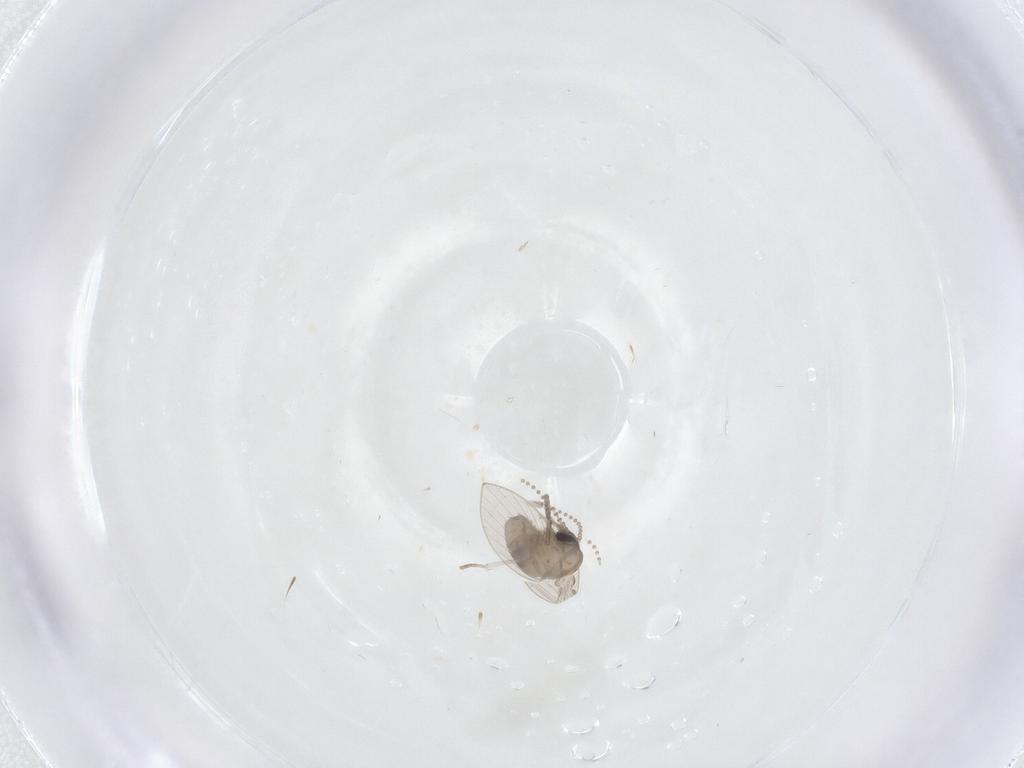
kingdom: Animalia
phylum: Arthropoda
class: Insecta
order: Diptera
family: Psychodidae
